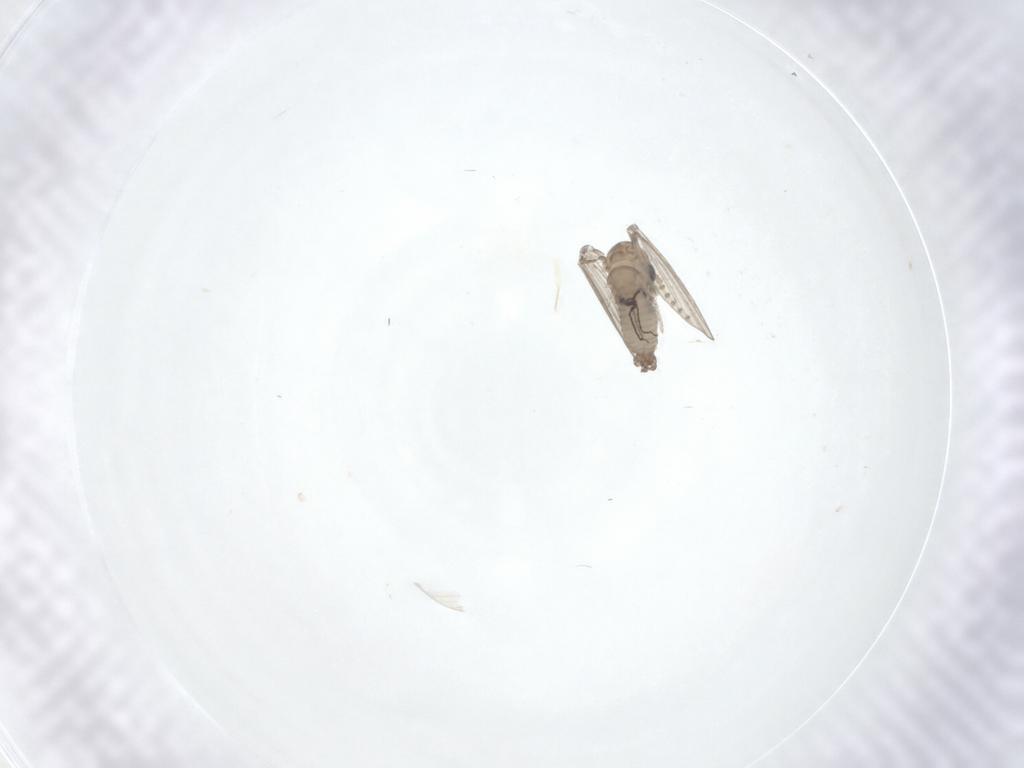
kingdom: Animalia
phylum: Arthropoda
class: Insecta
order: Diptera
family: Psychodidae
